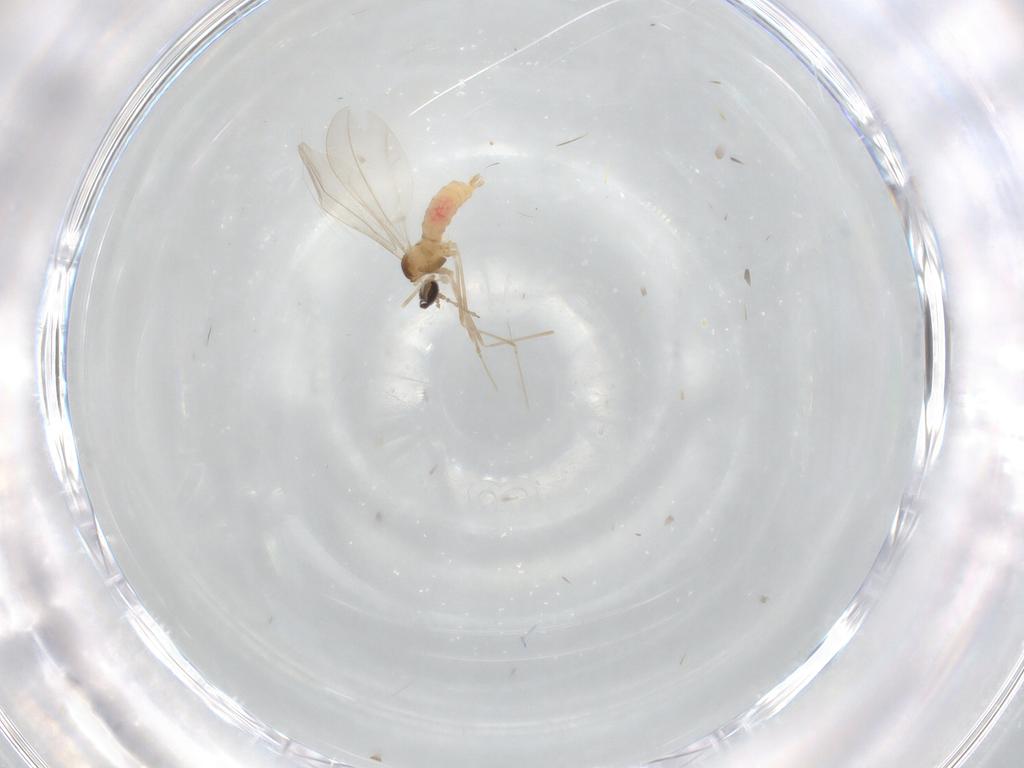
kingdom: Animalia
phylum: Arthropoda
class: Insecta
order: Diptera
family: Cecidomyiidae
